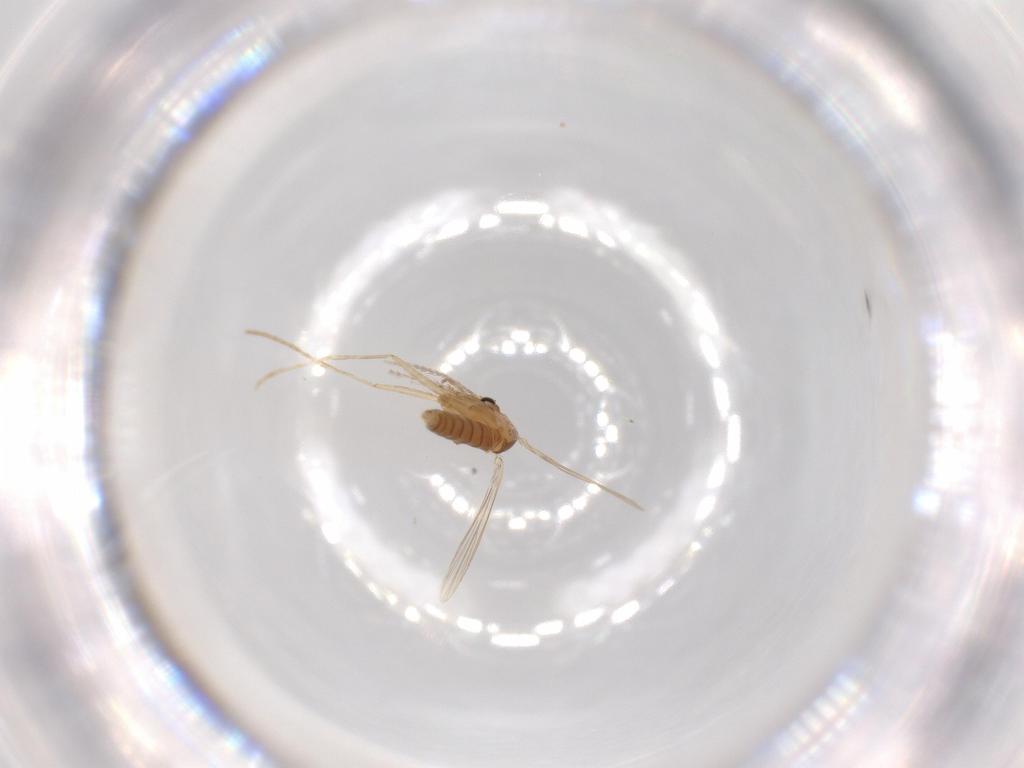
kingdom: Animalia
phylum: Arthropoda
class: Insecta
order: Diptera
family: Psychodidae
